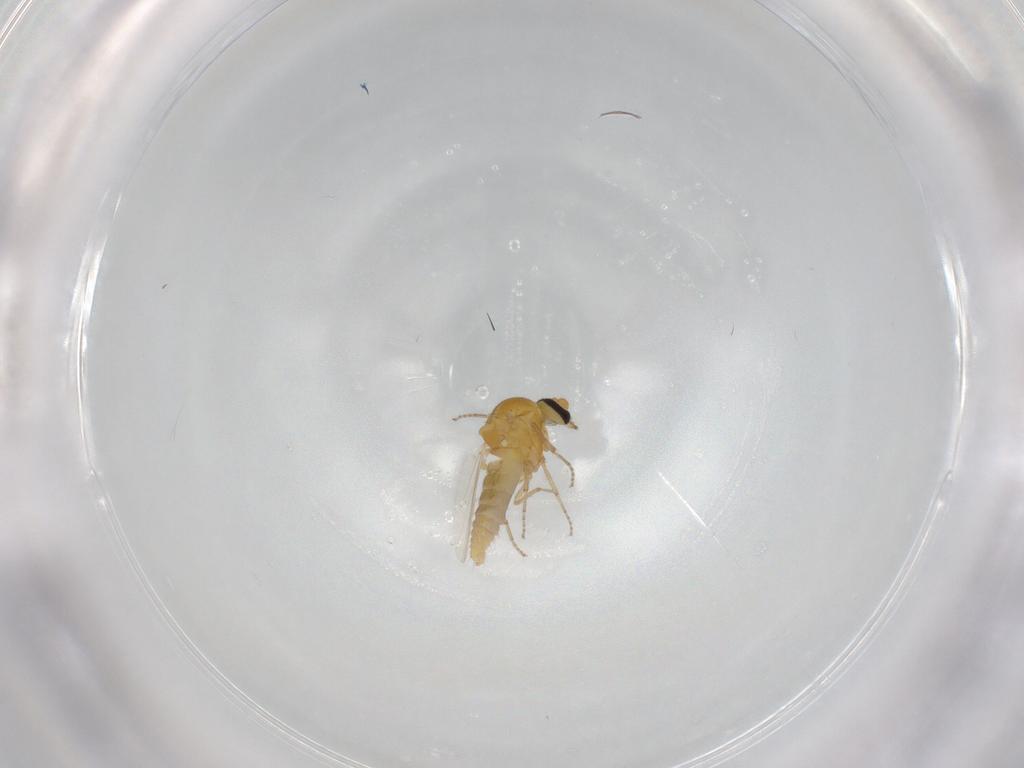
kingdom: Animalia
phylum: Arthropoda
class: Insecta
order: Diptera
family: Ceratopogonidae
